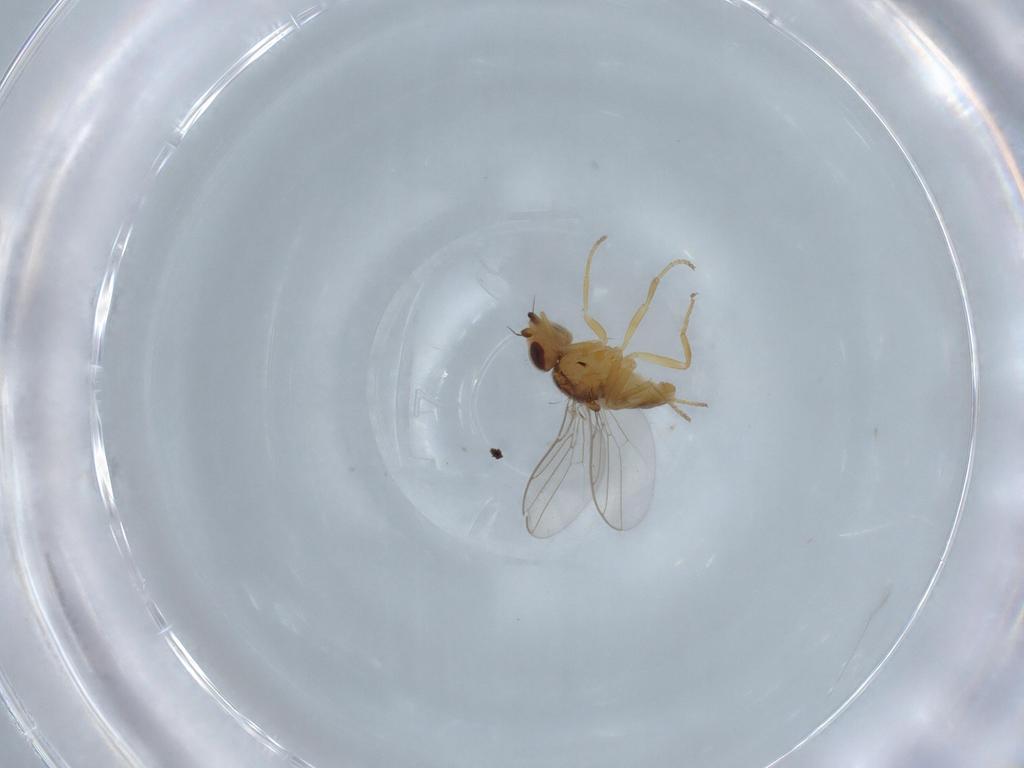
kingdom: Animalia
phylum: Arthropoda
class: Insecta
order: Diptera
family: Chloropidae
